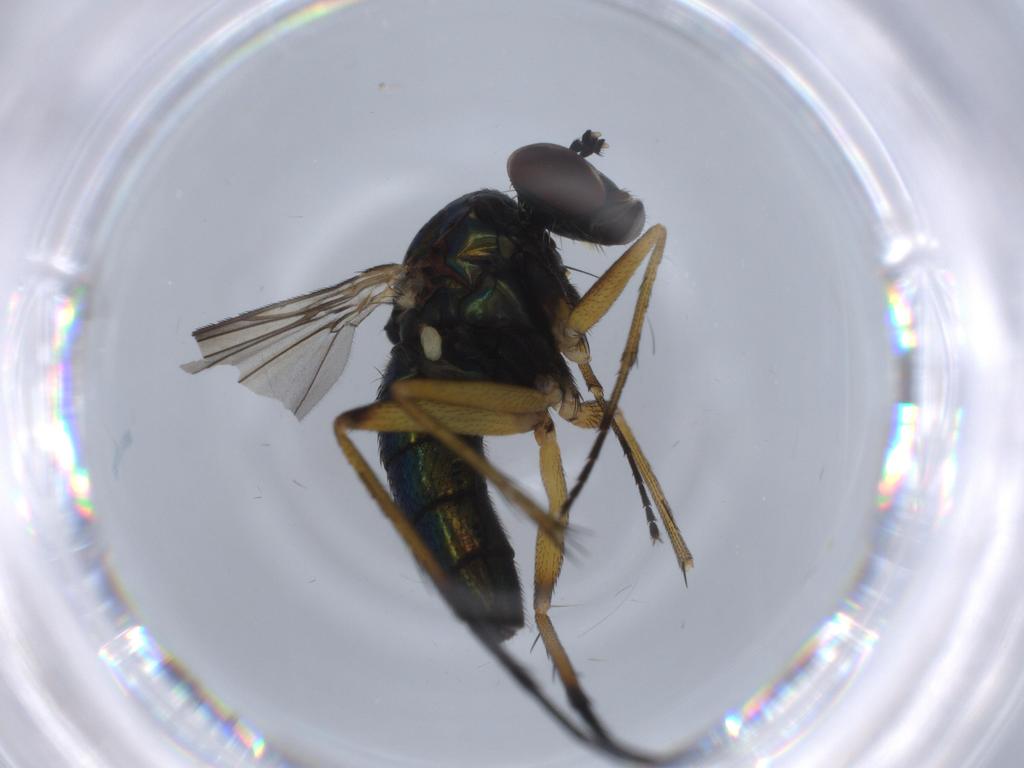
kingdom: Animalia
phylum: Arthropoda
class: Insecta
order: Diptera
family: Dolichopodidae
